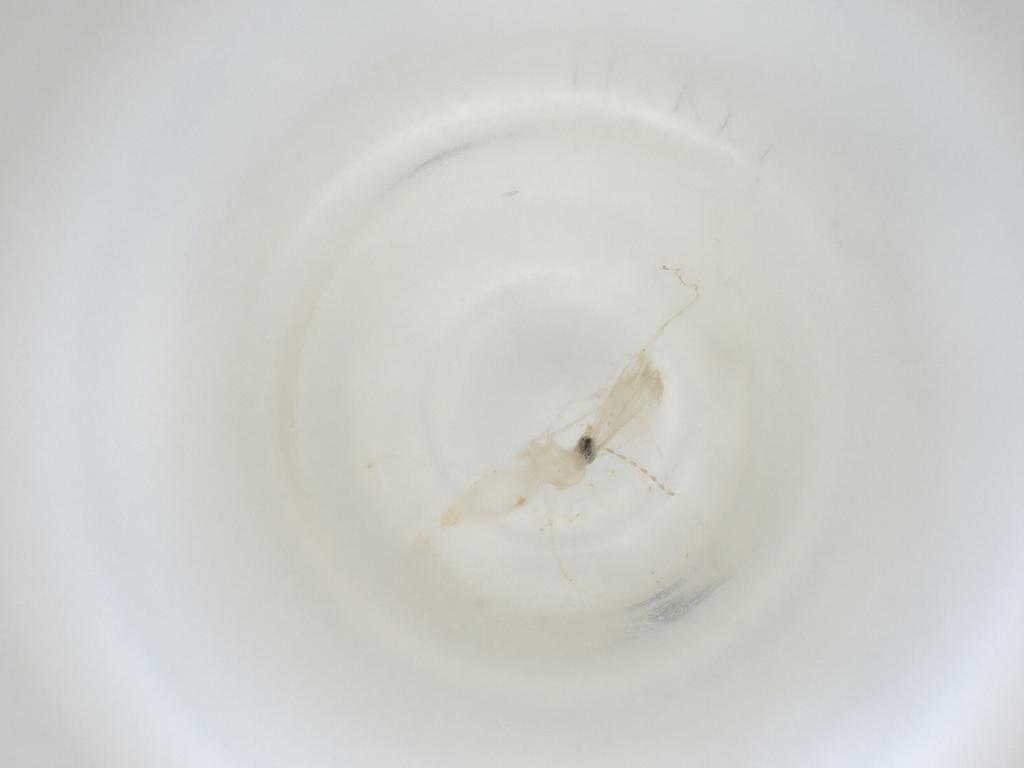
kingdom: Animalia
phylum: Arthropoda
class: Insecta
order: Diptera
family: Cecidomyiidae
